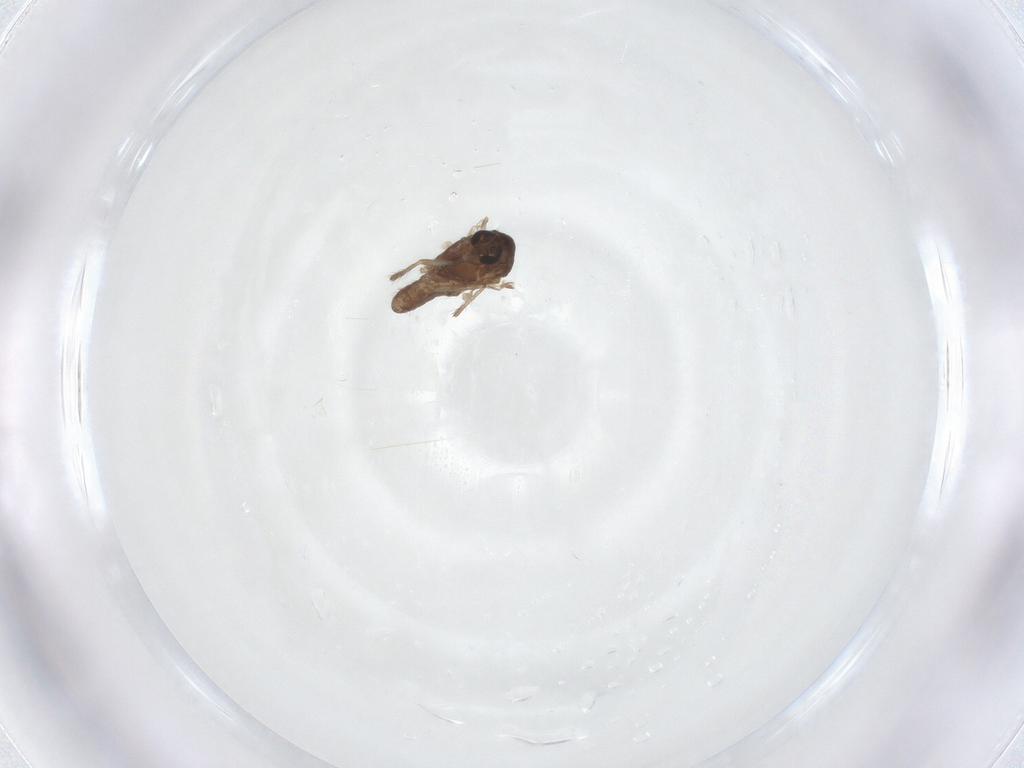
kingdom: Animalia
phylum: Arthropoda
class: Insecta
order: Diptera
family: Chironomidae
